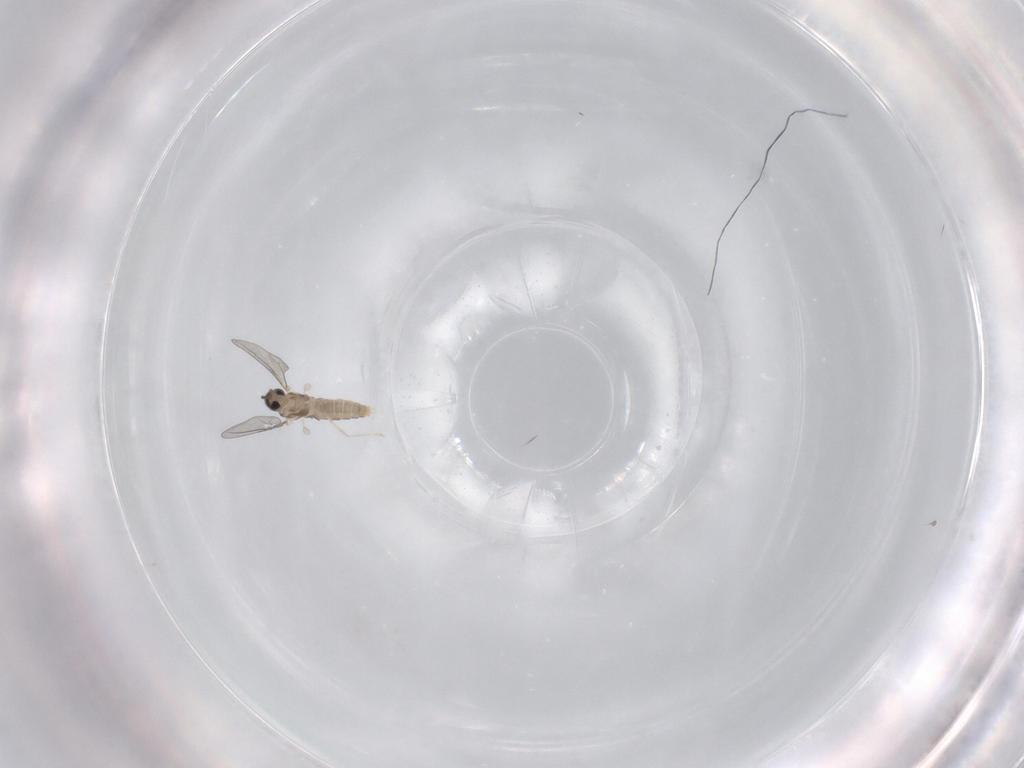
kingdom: Animalia
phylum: Arthropoda
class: Insecta
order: Diptera
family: Cecidomyiidae
